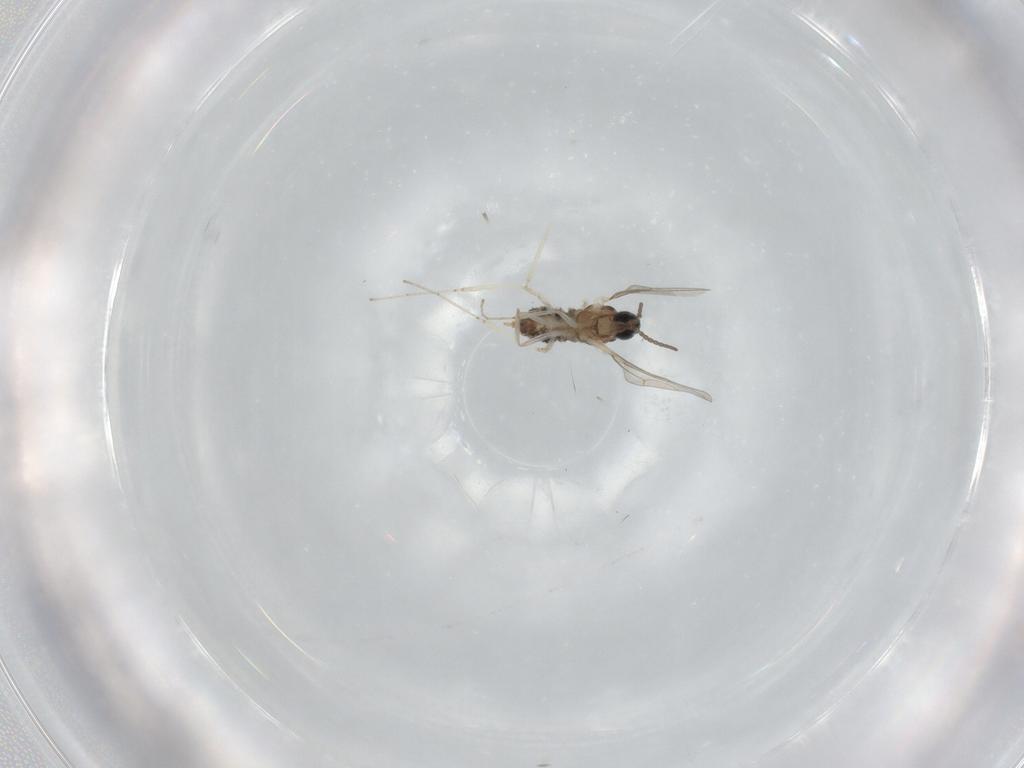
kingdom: Animalia
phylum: Arthropoda
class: Insecta
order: Diptera
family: Cecidomyiidae
